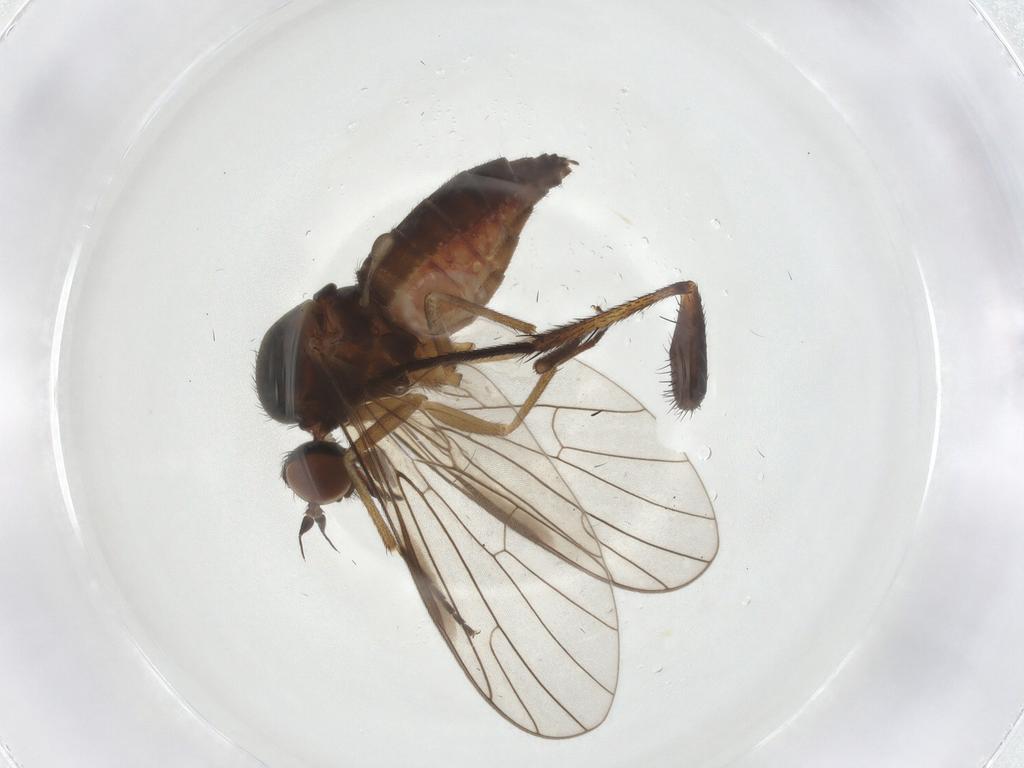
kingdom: Animalia
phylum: Arthropoda
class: Insecta
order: Diptera
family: Empididae
